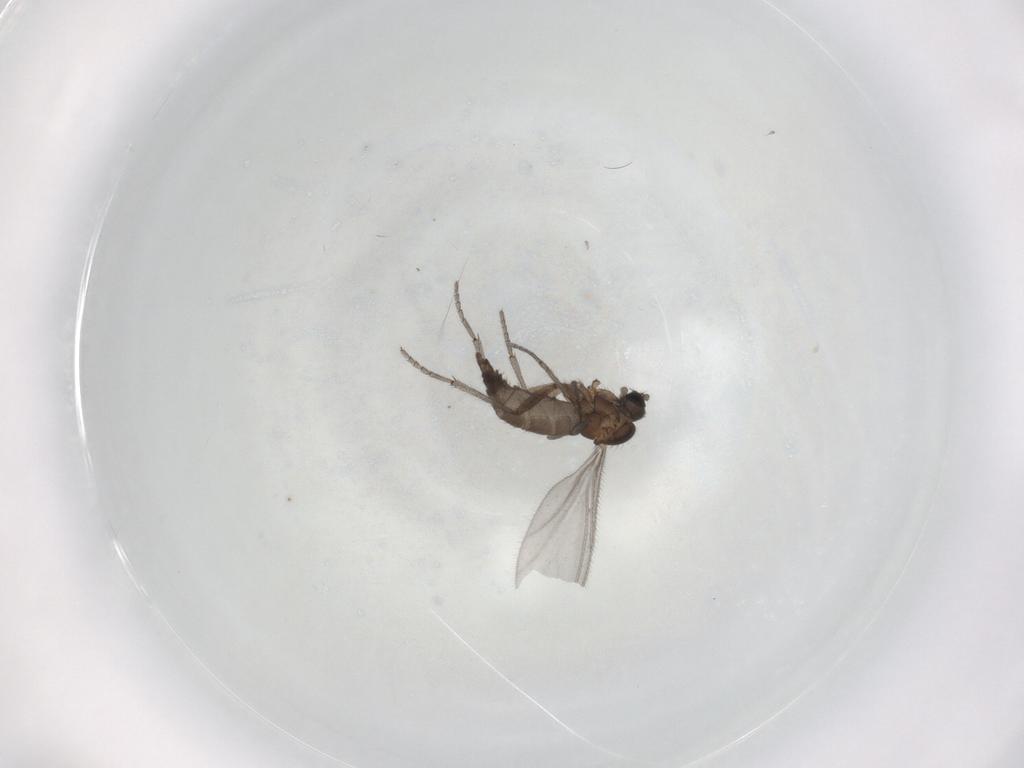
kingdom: Animalia
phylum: Arthropoda
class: Insecta
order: Diptera
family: Sciaridae
